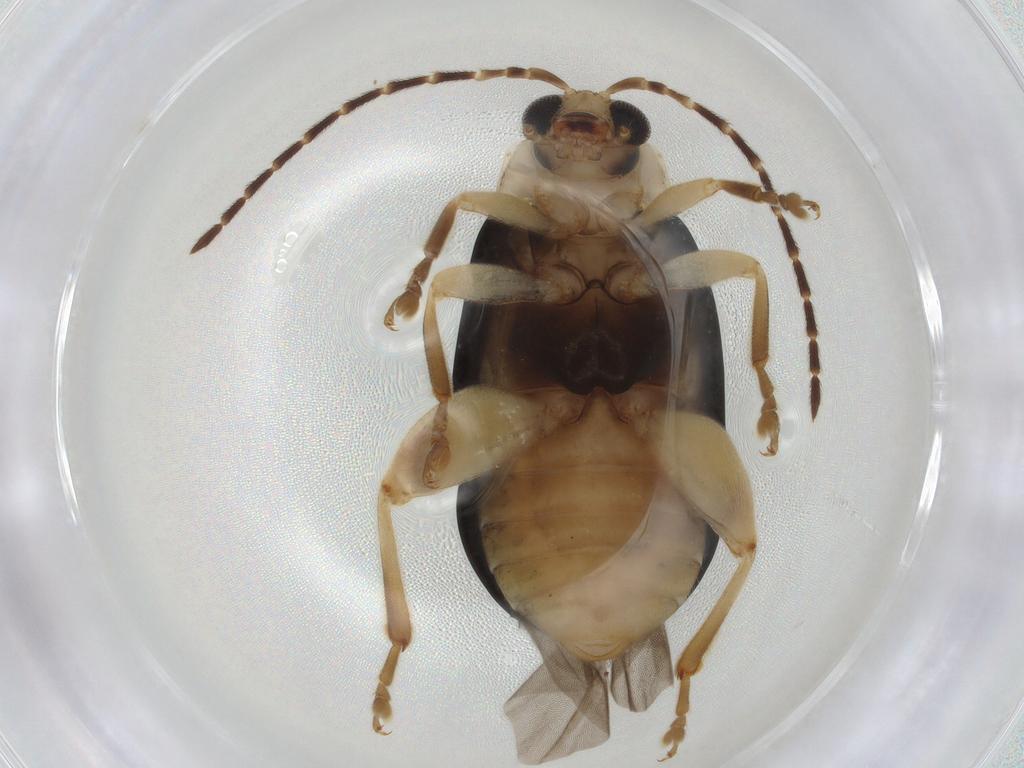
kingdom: Animalia
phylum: Arthropoda
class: Insecta
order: Coleoptera
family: Chrysomelidae
